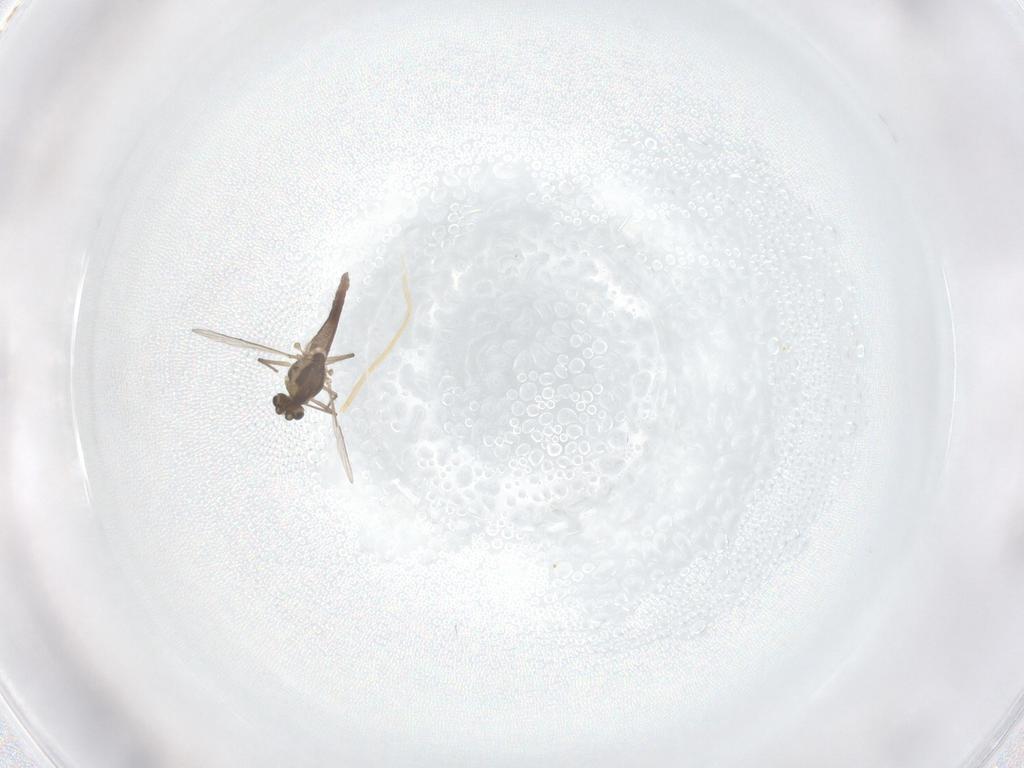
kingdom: Animalia
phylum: Arthropoda
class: Insecta
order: Diptera
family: Chironomidae
